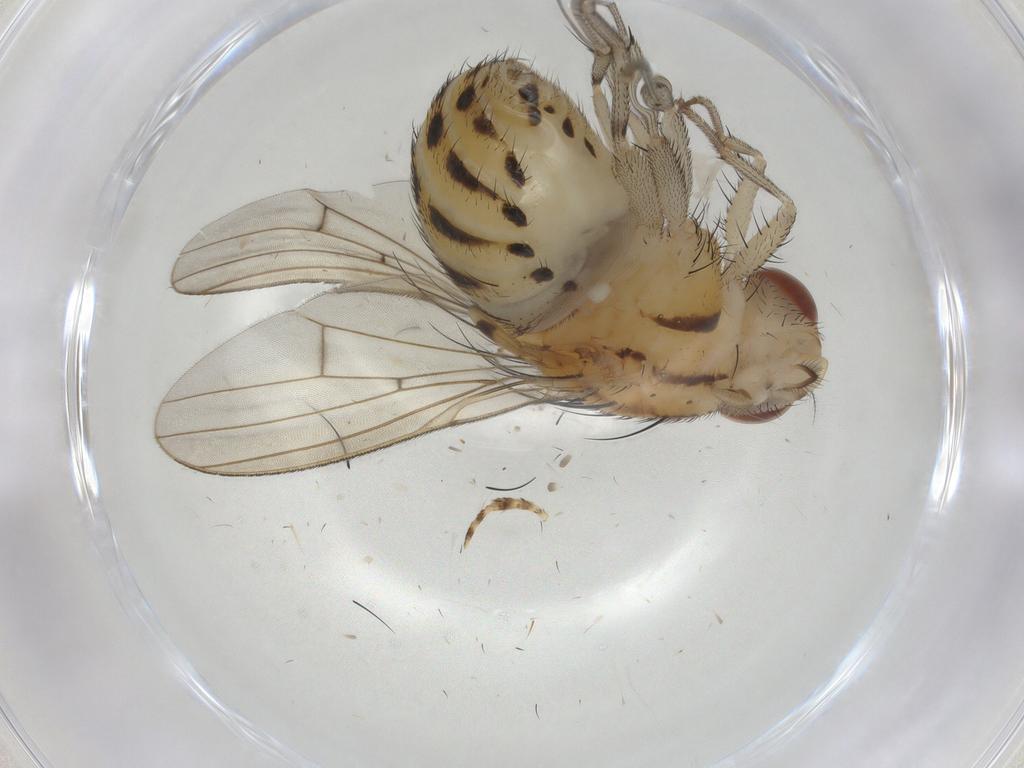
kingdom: Animalia
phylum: Arthropoda
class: Insecta
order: Diptera
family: Lauxaniidae
